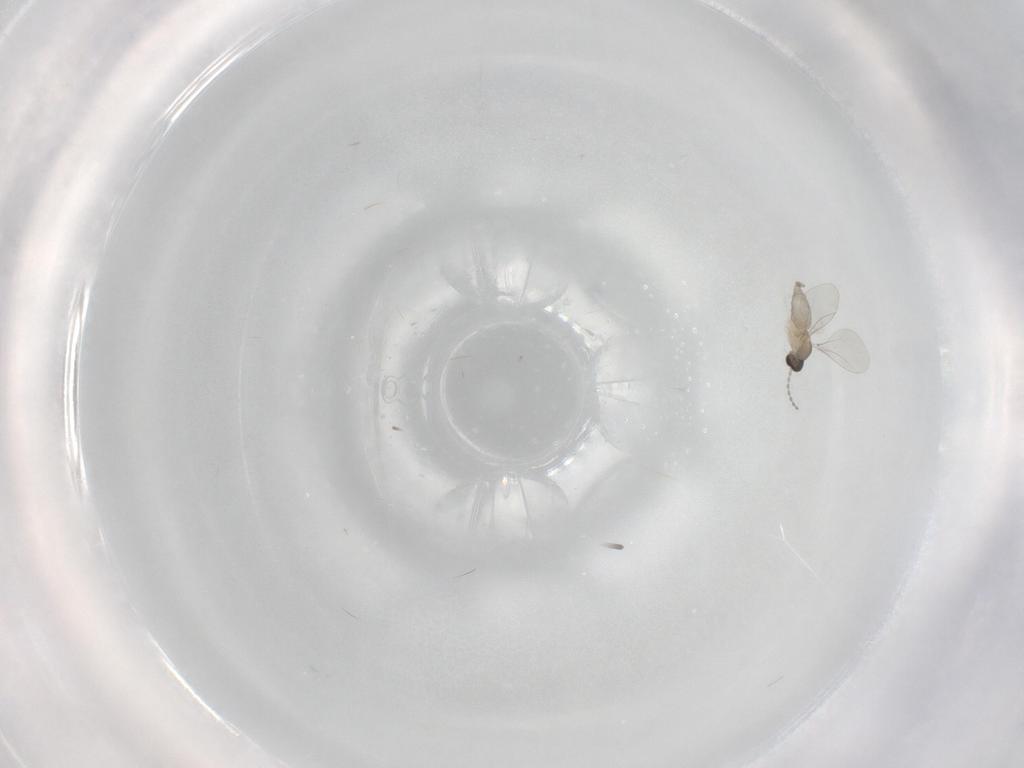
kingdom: Animalia
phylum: Arthropoda
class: Insecta
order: Diptera
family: Cecidomyiidae
